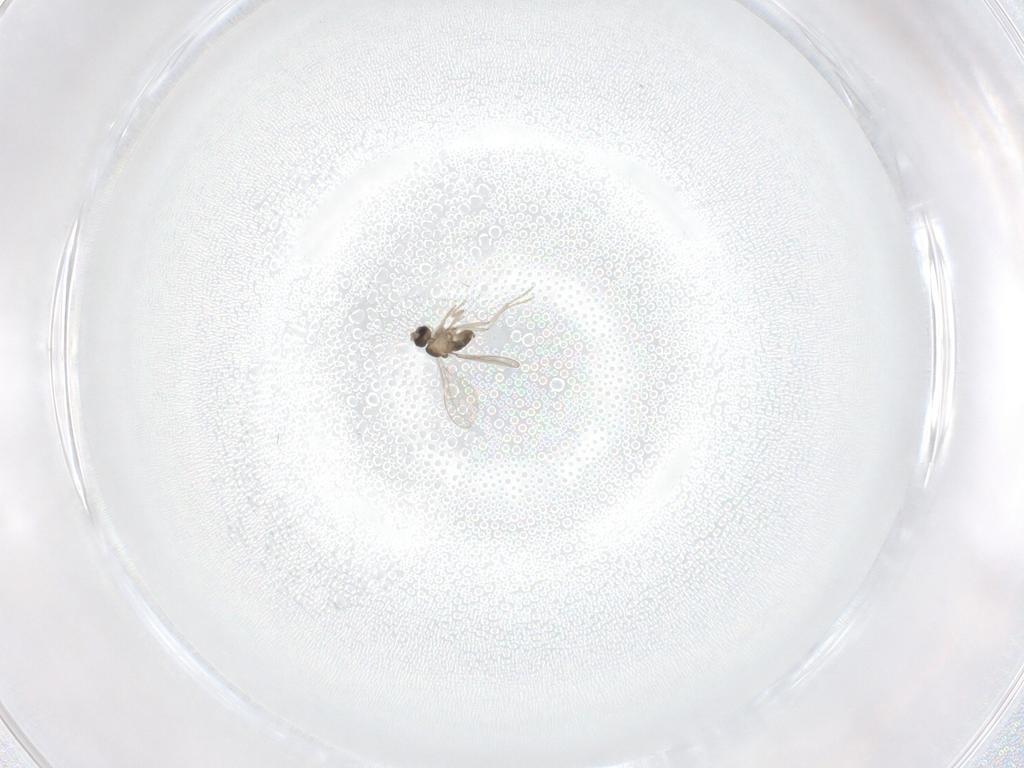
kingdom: Animalia
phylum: Arthropoda
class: Insecta
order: Diptera
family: Cecidomyiidae
